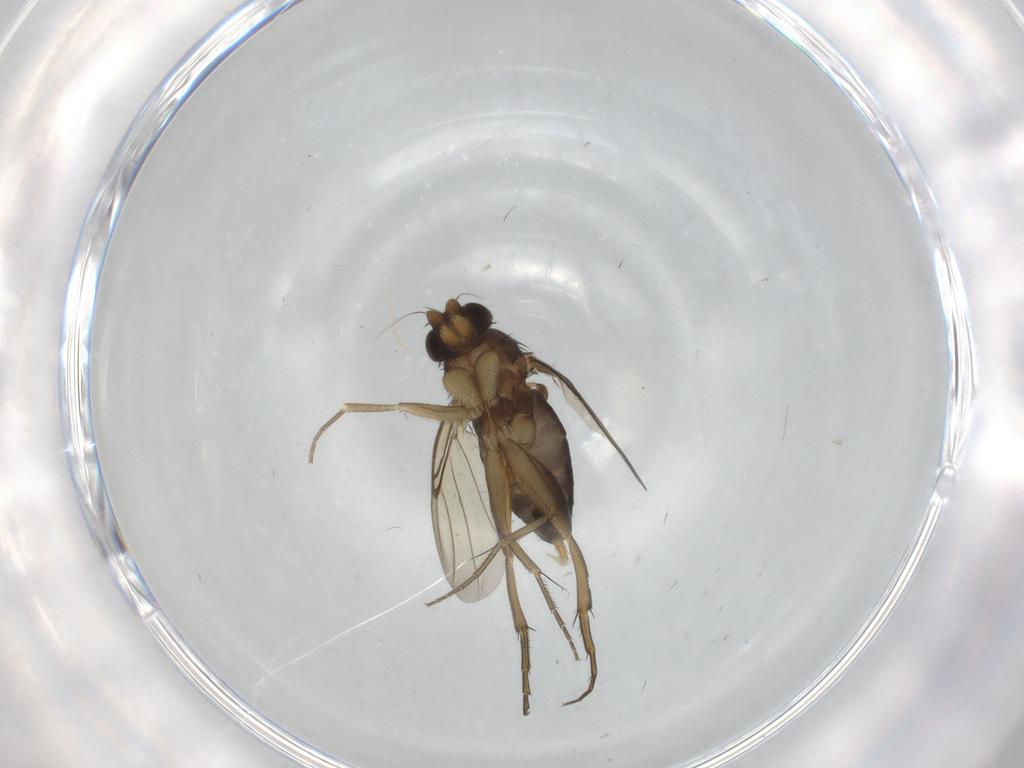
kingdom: Animalia
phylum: Arthropoda
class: Insecta
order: Diptera
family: Phoridae
